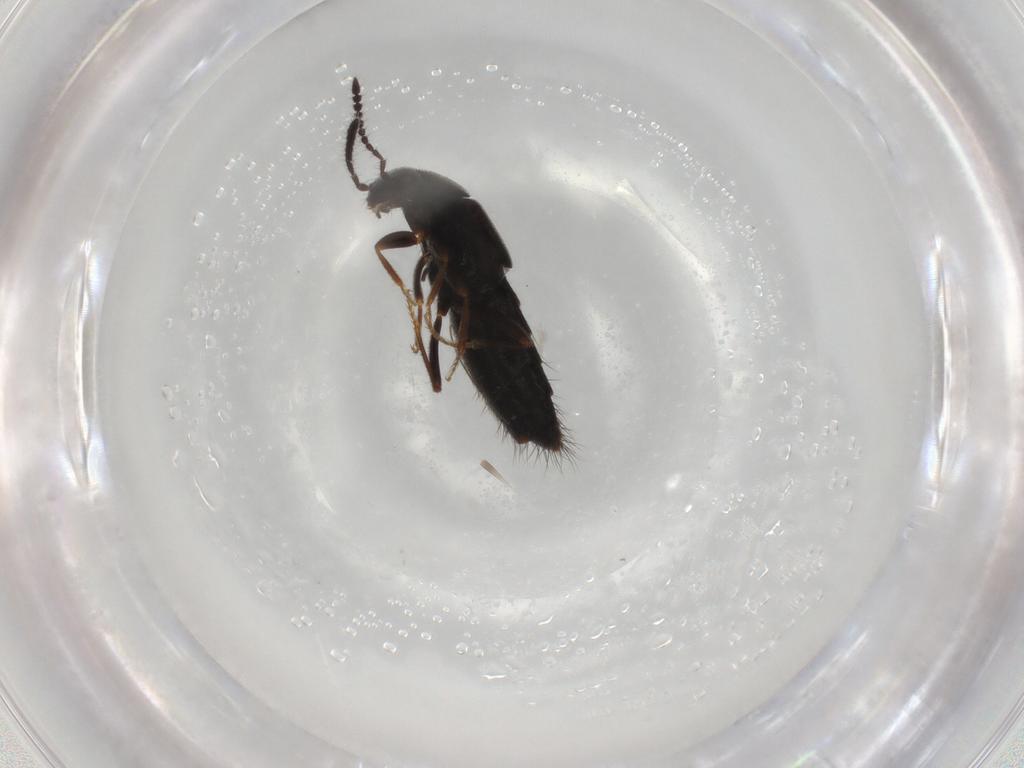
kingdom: Animalia
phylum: Arthropoda
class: Insecta
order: Coleoptera
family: Staphylinidae
